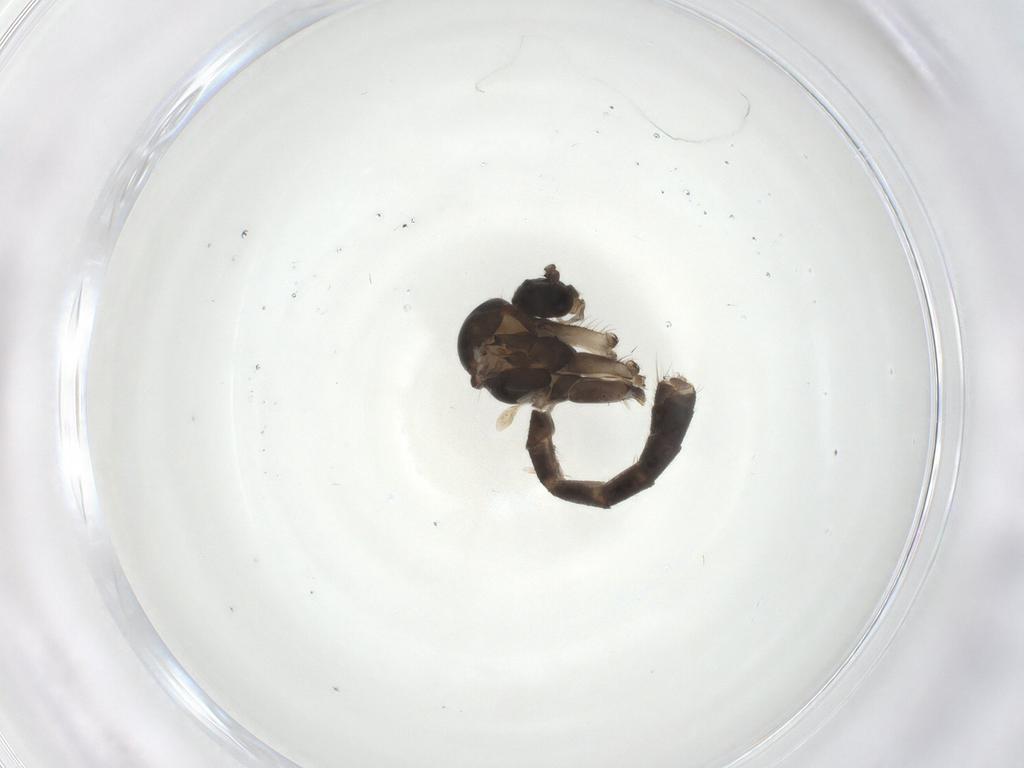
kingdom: Animalia
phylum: Arthropoda
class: Insecta
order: Diptera
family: Mycetophilidae
